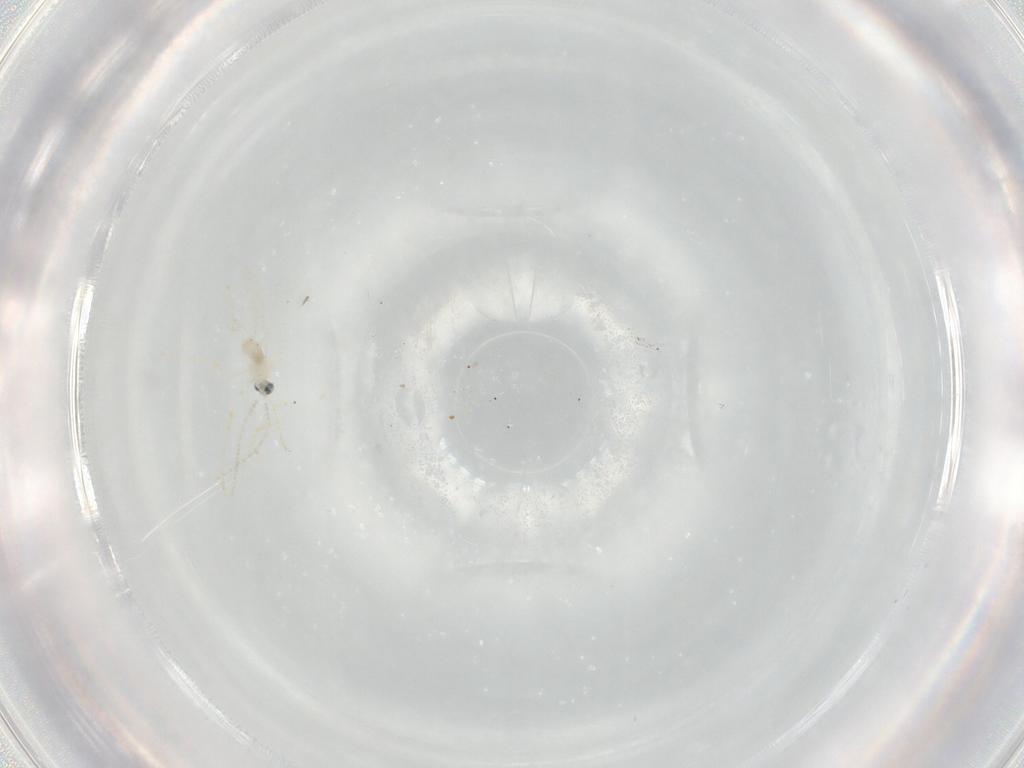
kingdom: Animalia
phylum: Arthropoda
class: Insecta
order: Diptera
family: Cecidomyiidae
